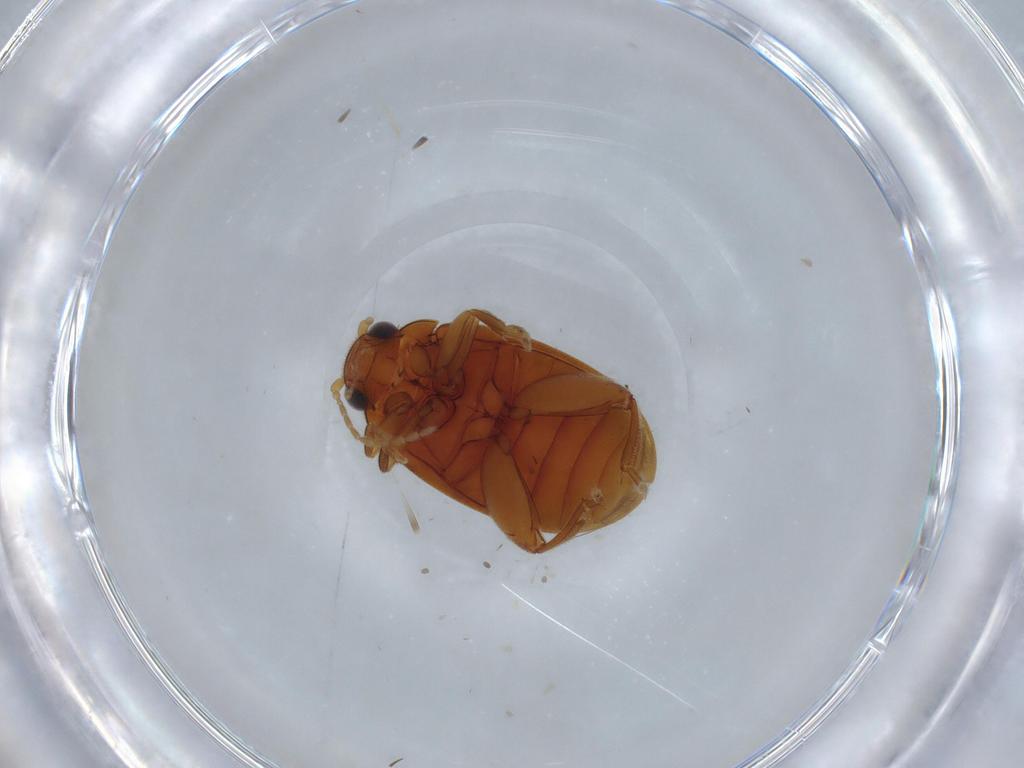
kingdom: Animalia
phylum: Arthropoda
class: Insecta
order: Coleoptera
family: Scirtidae
